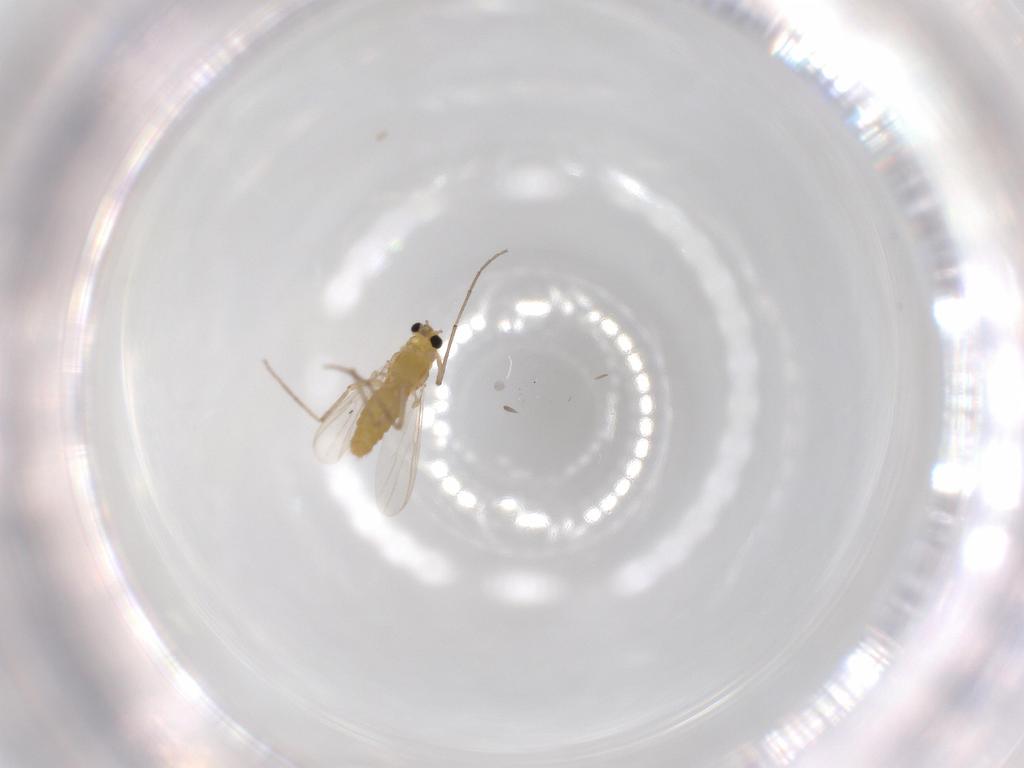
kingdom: Animalia
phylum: Arthropoda
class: Insecta
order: Diptera
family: Chironomidae
